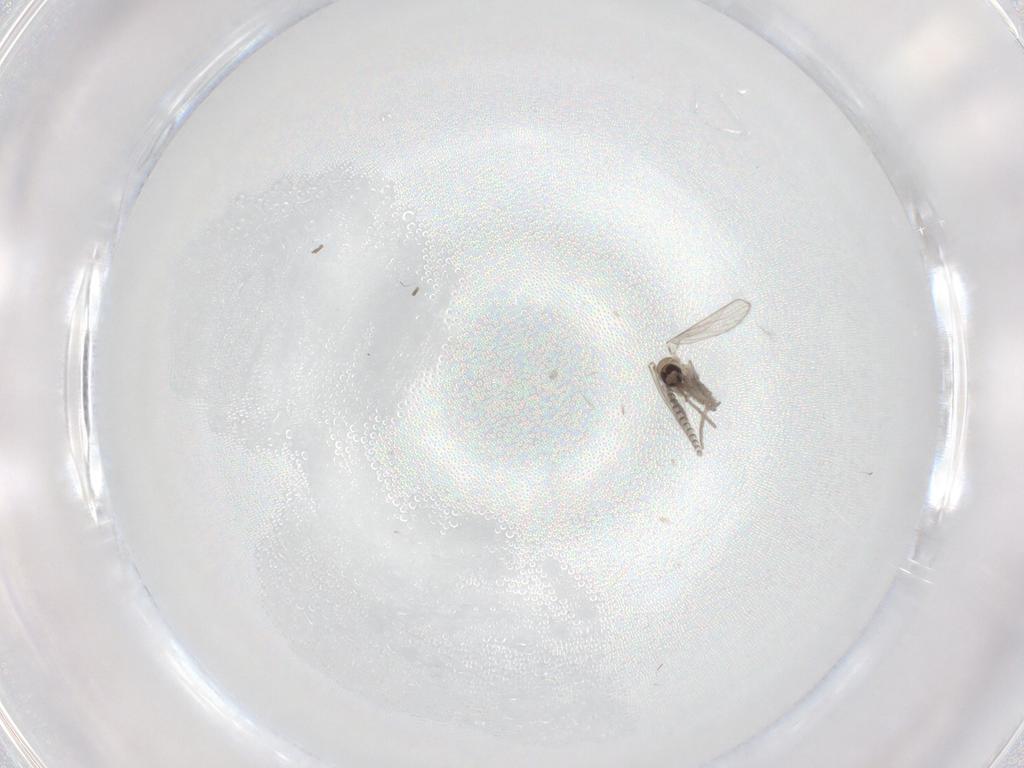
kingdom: Animalia
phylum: Arthropoda
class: Insecta
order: Diptera
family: Psychodidae
